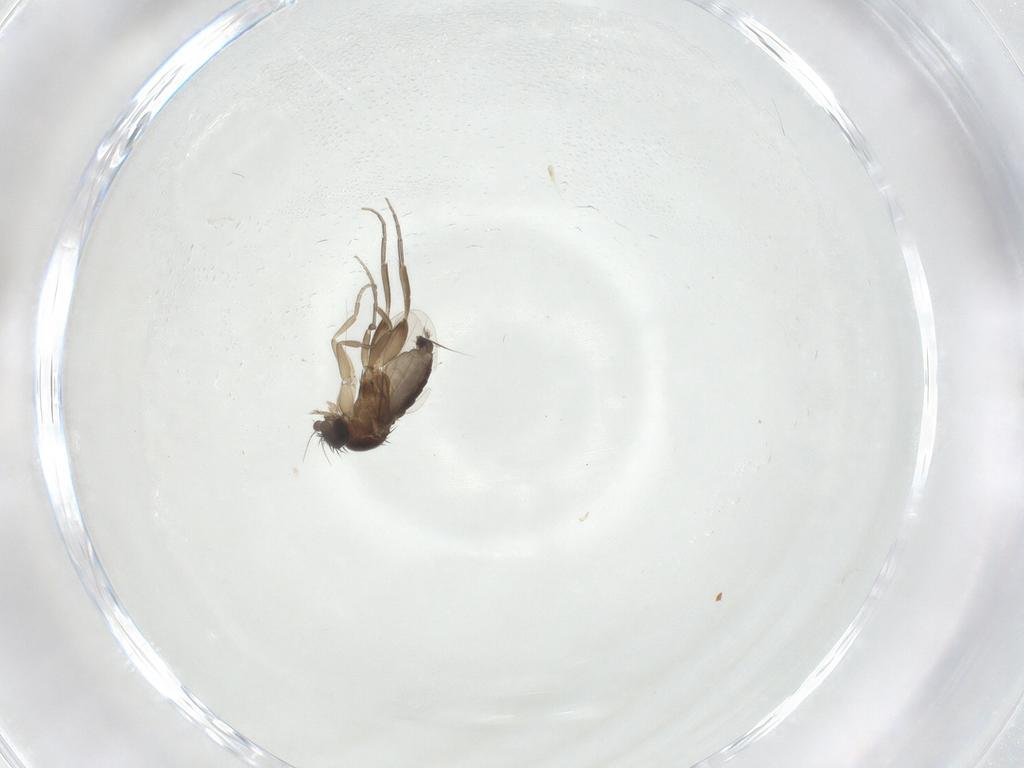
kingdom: Animalia
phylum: Arthropoda
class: Insecta
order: Diptera
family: Phoridae
